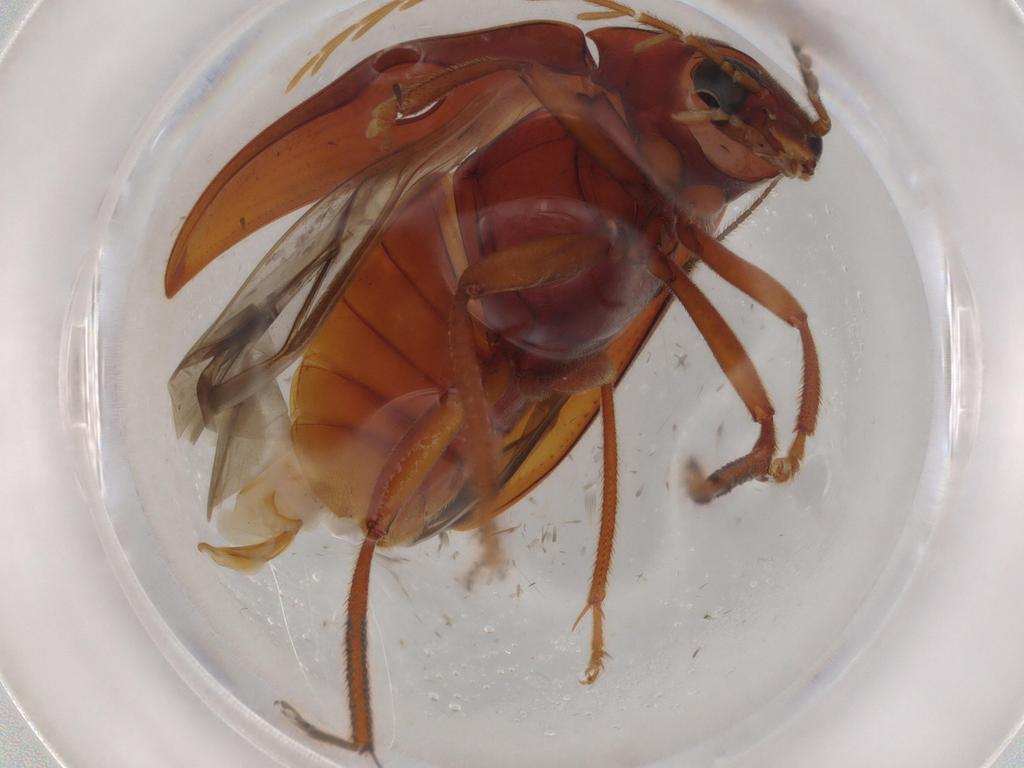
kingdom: Animalia
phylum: Arthropoda
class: Insecta
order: Coleoptera
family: Ptilodactylidae
